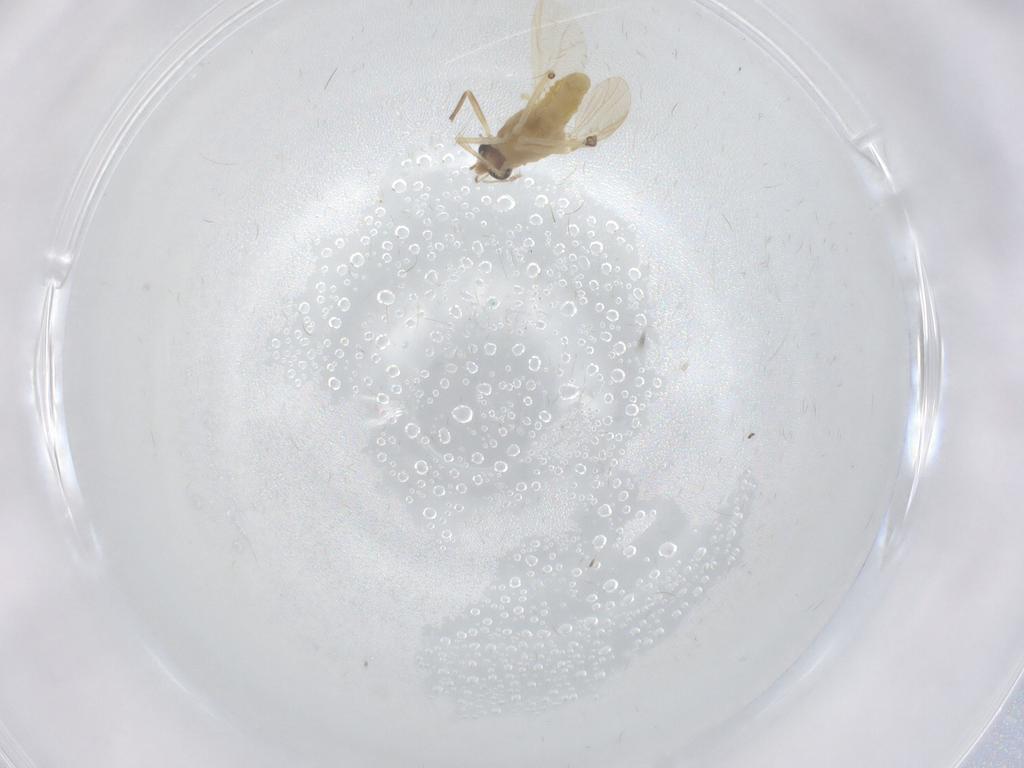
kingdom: Animalia
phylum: Arthropoda
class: Insecta
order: Diptera
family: Chironomidae
